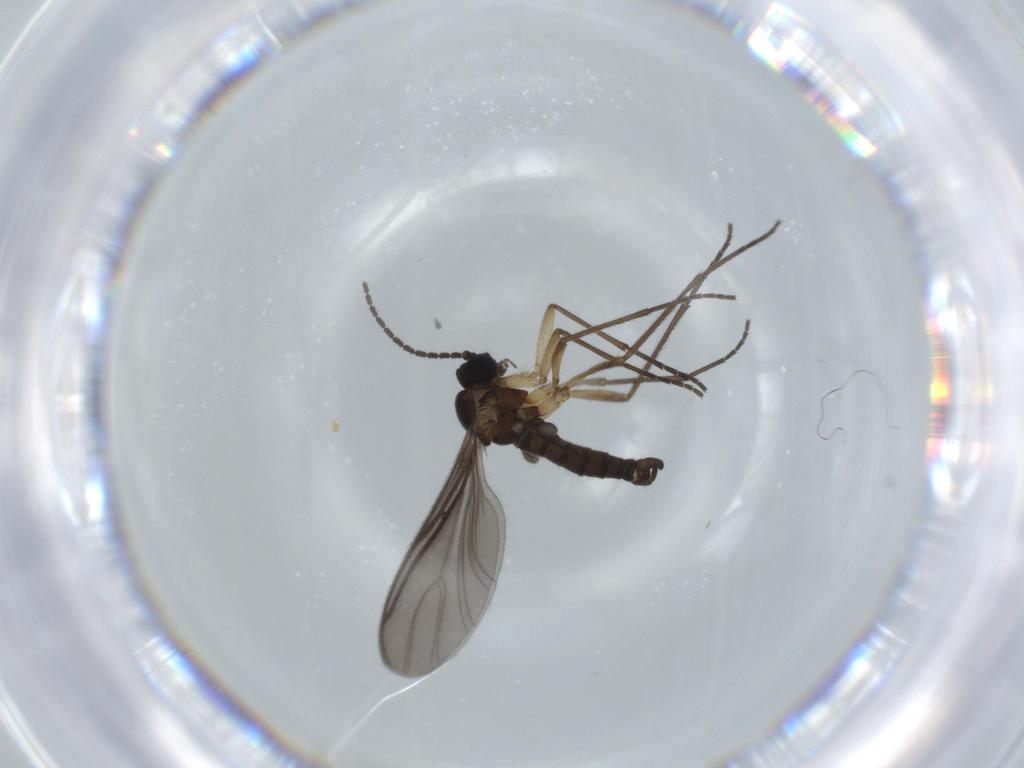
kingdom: Animalia
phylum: Arthropoda
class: Insecta
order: Diptera
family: Sciaridae
